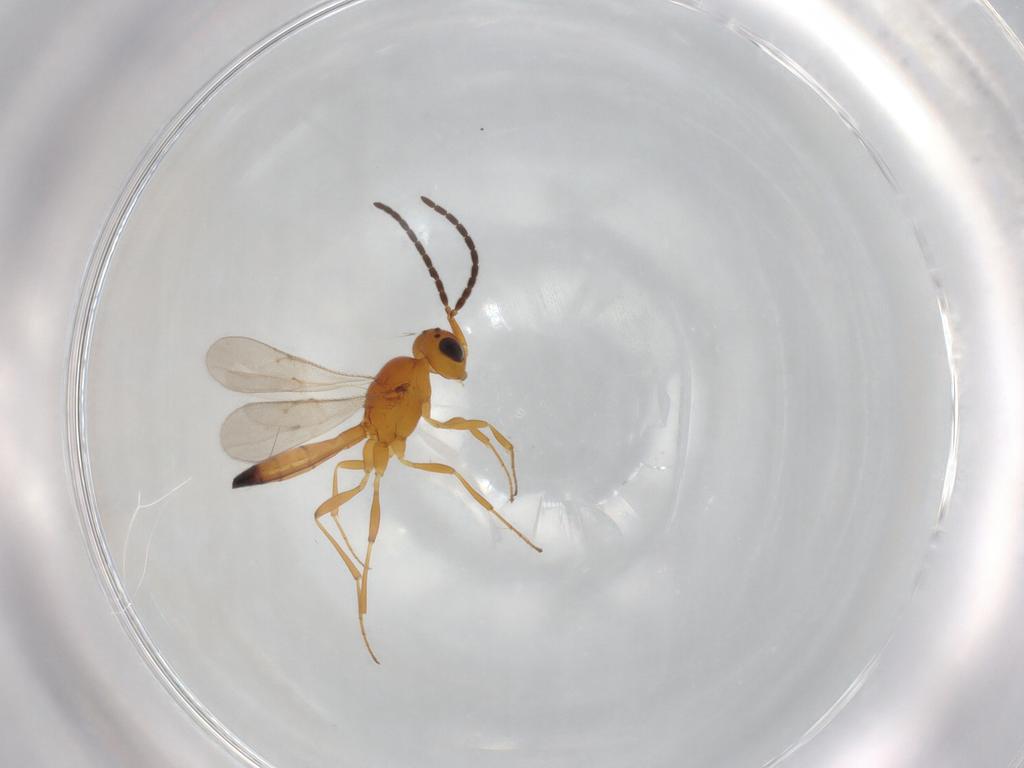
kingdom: Animalia
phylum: Arthropoda
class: Insecta
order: Hymenoptera
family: Scelionidae
